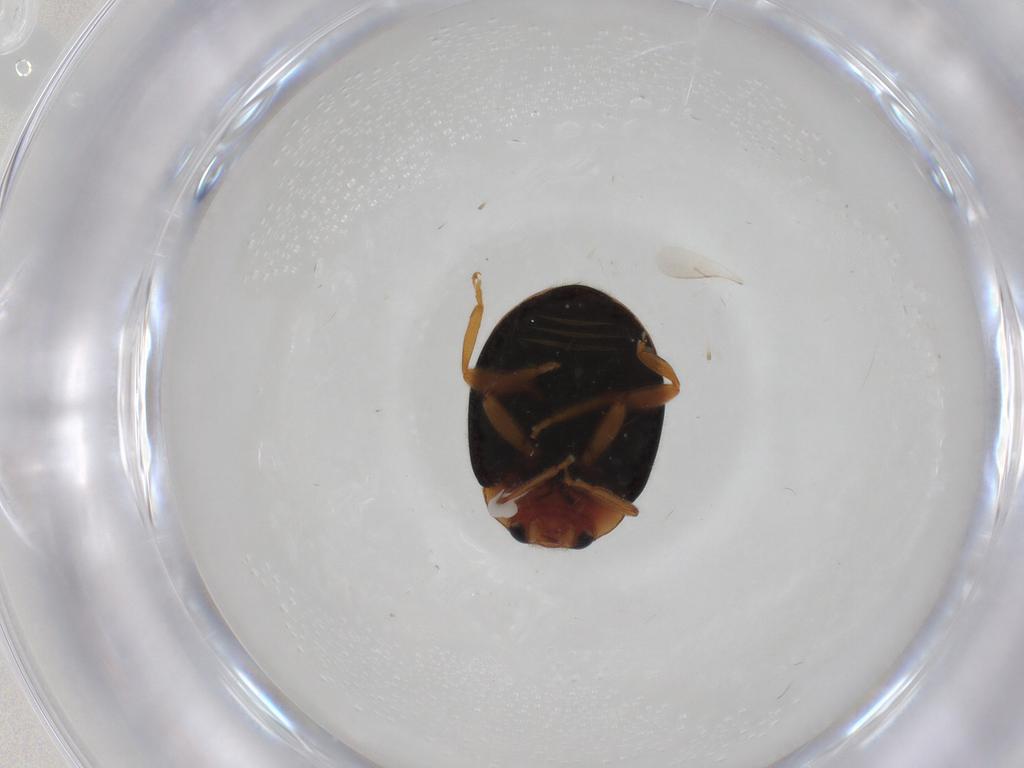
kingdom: Animalia
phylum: Arthropoda
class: Insecta
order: Coleoptera
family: Chrysomelidae
